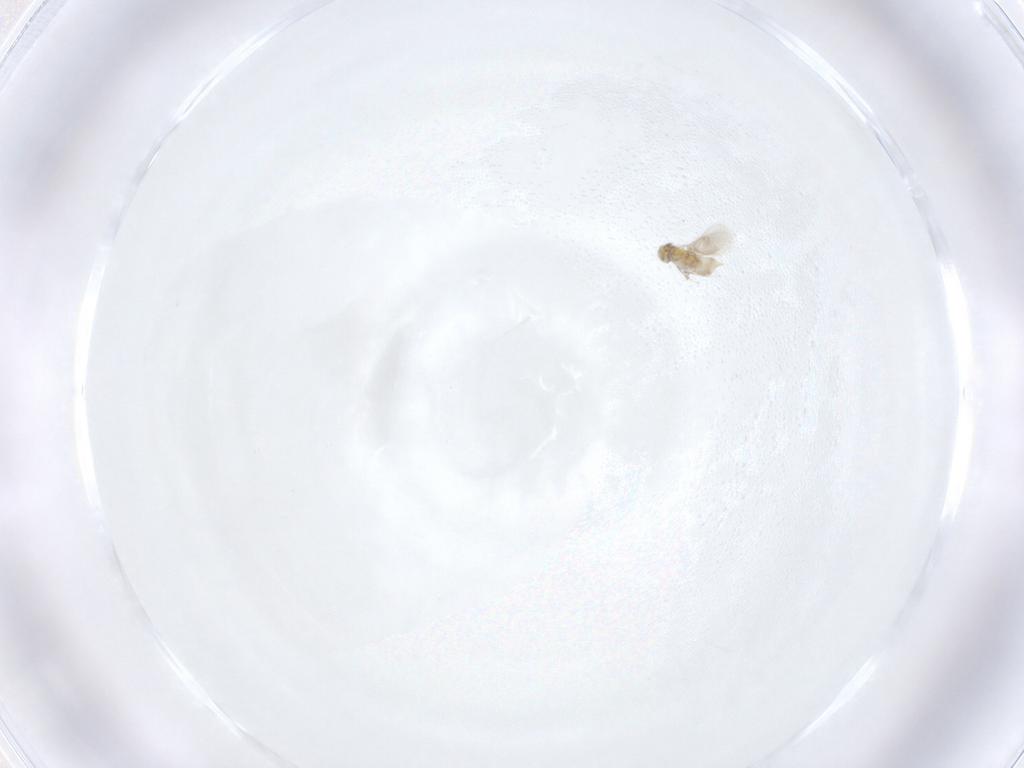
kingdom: Animalia
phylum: Arthropoda
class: Insecta
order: Hymenoptera
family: Aphelinidae
